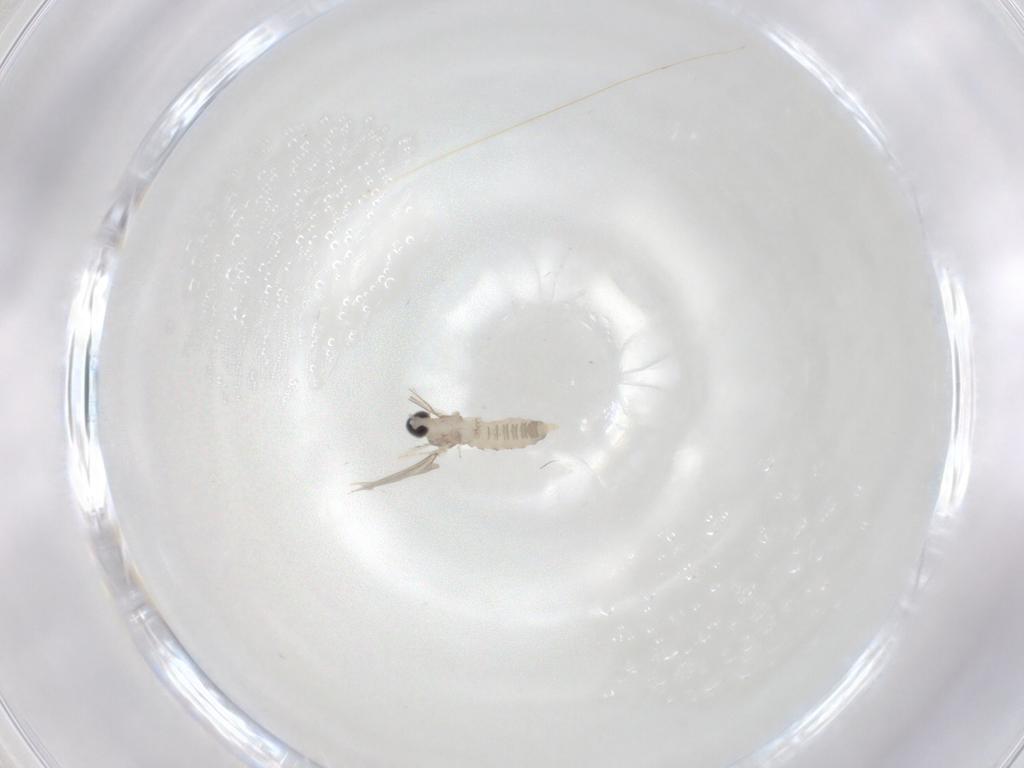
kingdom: Animalia
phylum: Arthropoda
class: Insecta
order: Diptera
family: Cecidomyiidae
